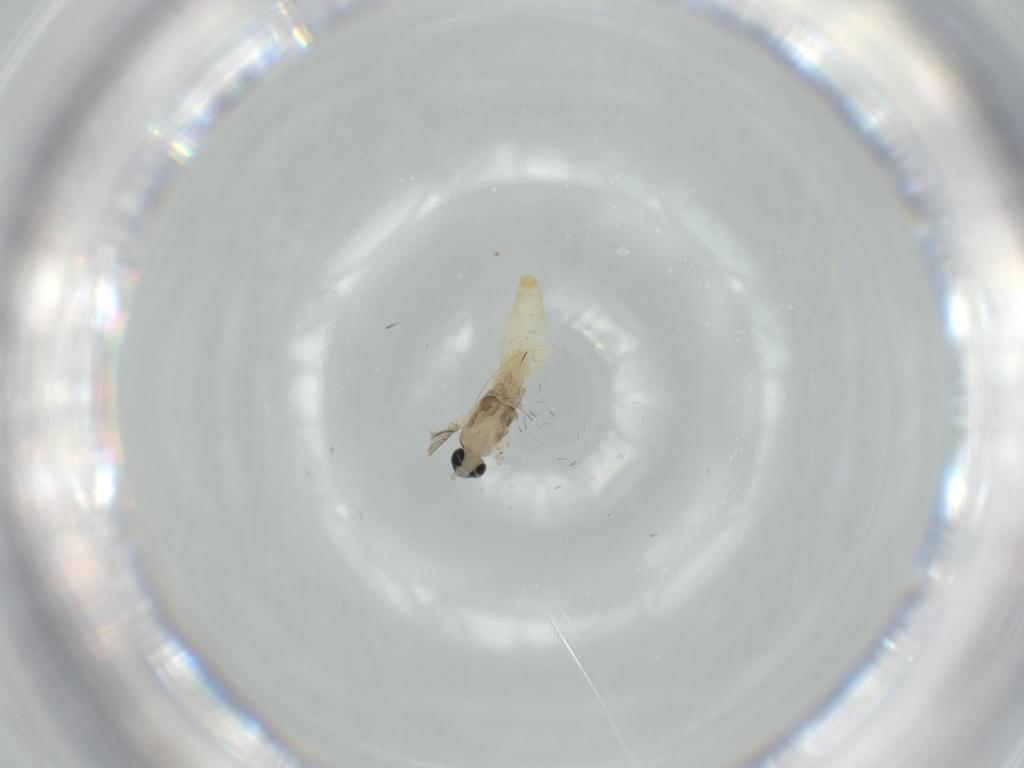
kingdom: Animalia
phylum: Arthropoda
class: Insecta
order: Diptera
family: Cecidomyiidae
